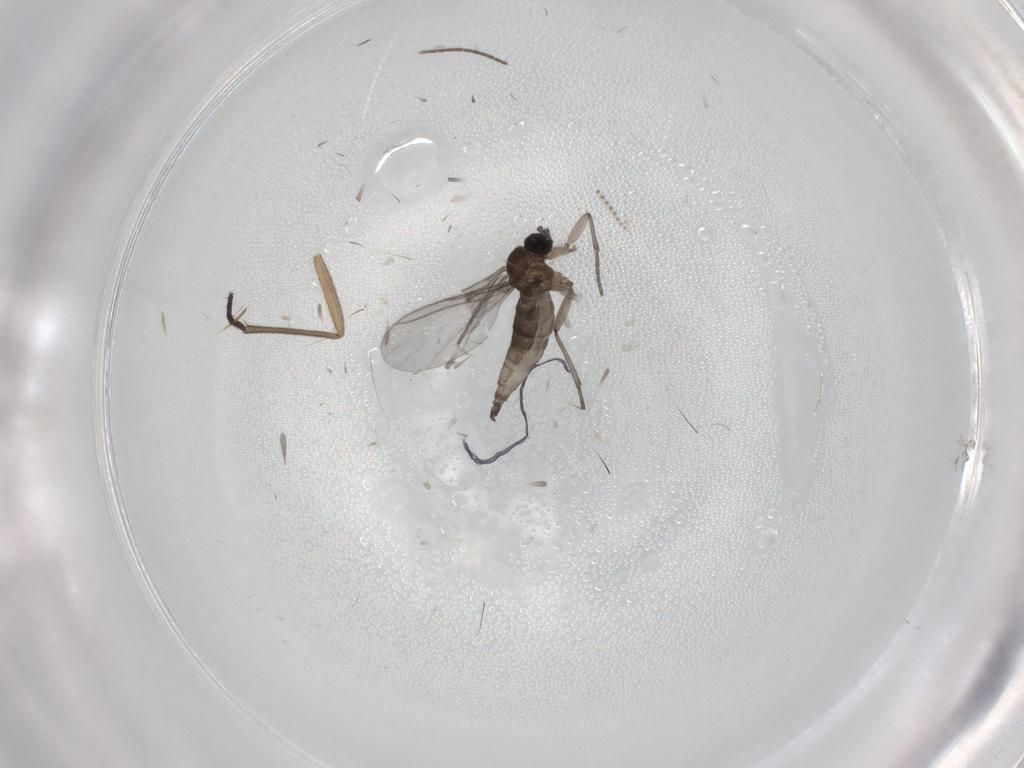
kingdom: Animalia
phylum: Arthropoda
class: Insecta
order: Diptera
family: Sciaridae
